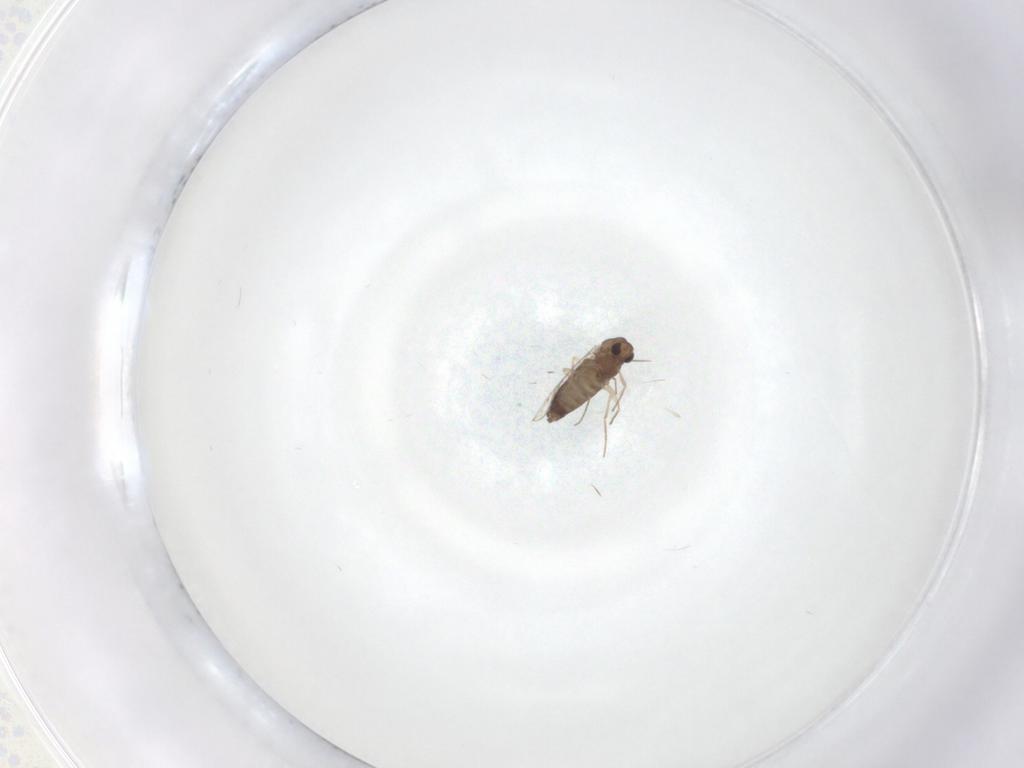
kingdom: Animalia
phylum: Arthropoda
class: Insecta
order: Diptera
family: Chironomidae
